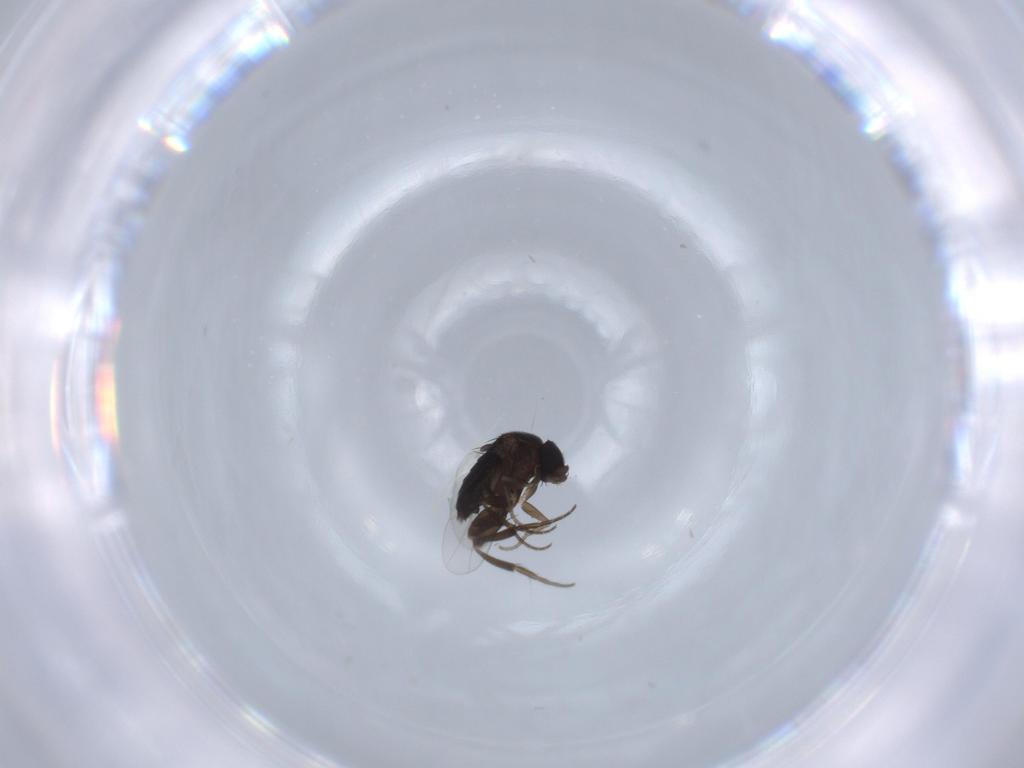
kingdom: Animalia
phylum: Arthropoda
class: Insecta
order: Diptera
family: Phoridae
